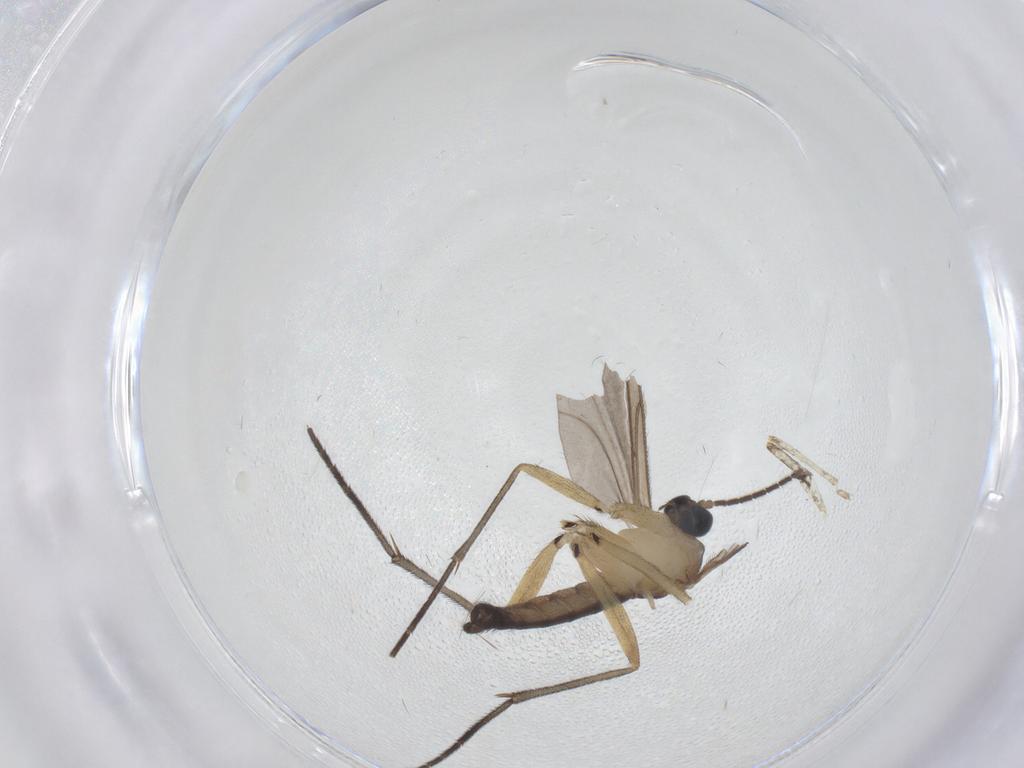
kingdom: Animalia
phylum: Arthropoda
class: Insecta
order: Diptera
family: Sciaridae
